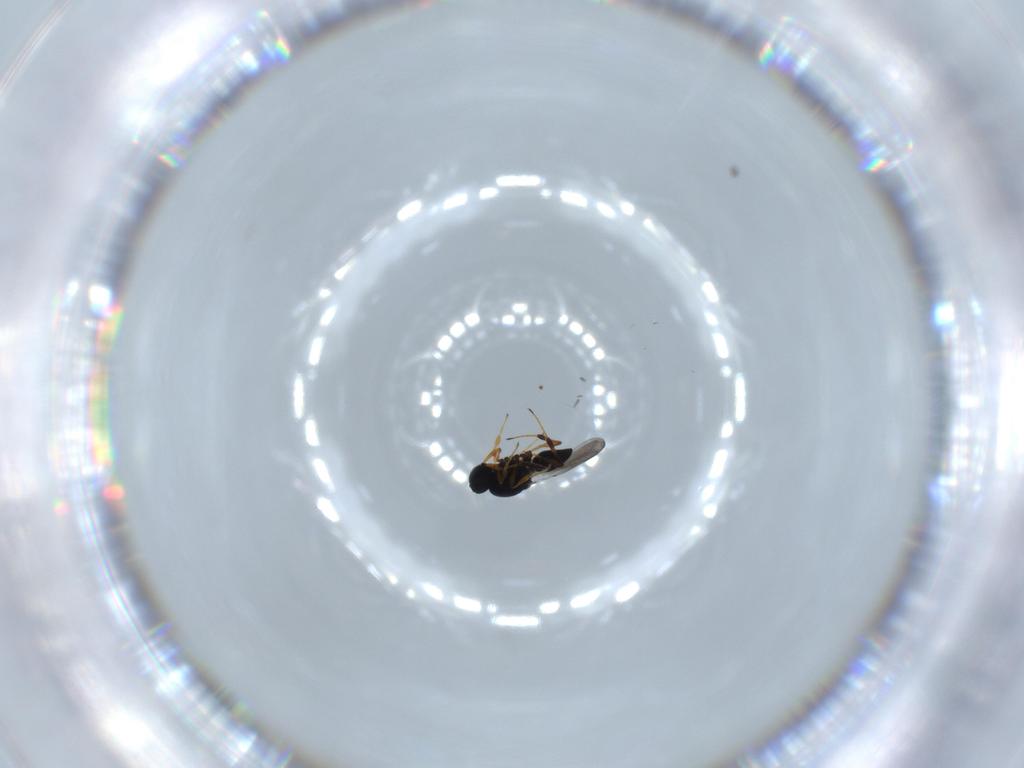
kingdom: Animalia
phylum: Arthropoda
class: Insecta
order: Hymenoptera
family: Platygastridae
